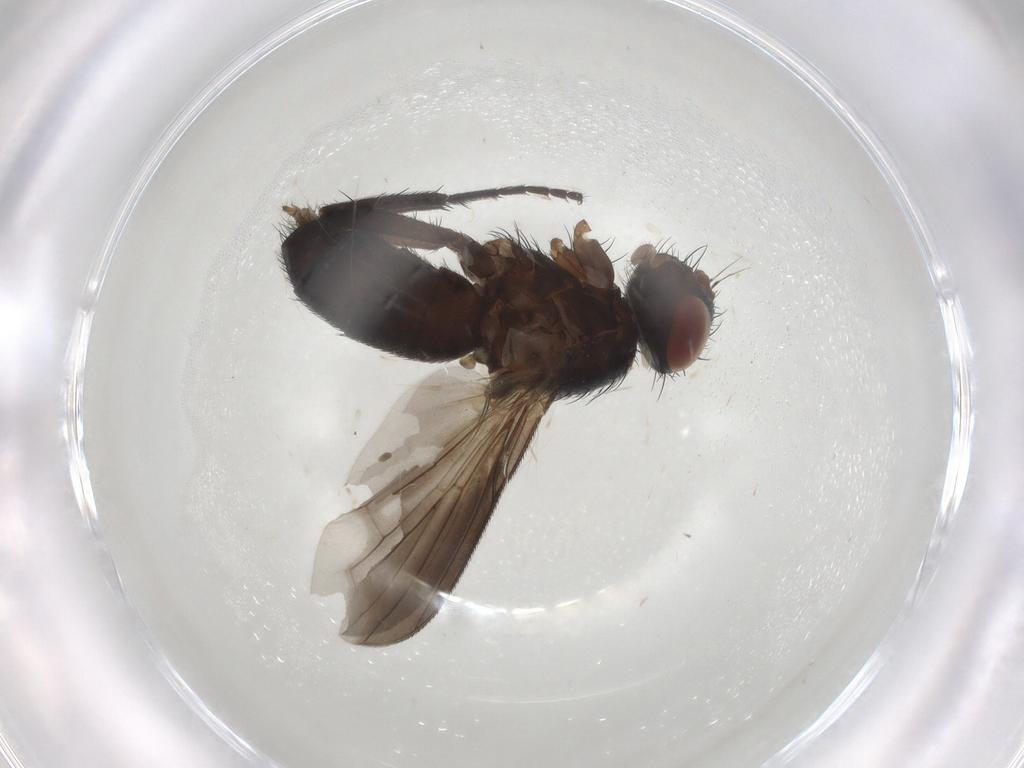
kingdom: Animalia
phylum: Arthropoda
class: Insecta
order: Diptera
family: Tachinidae
